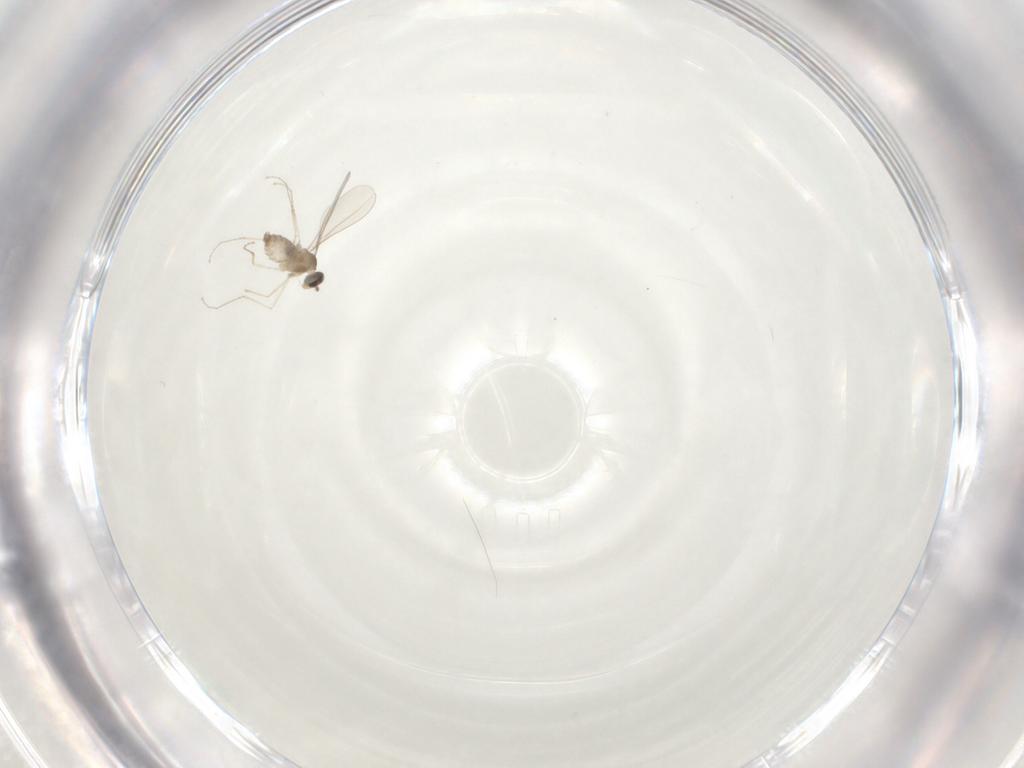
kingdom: Animalia
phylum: Arthropoda
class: Insecta
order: Diptera
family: Cecidomyiidae
